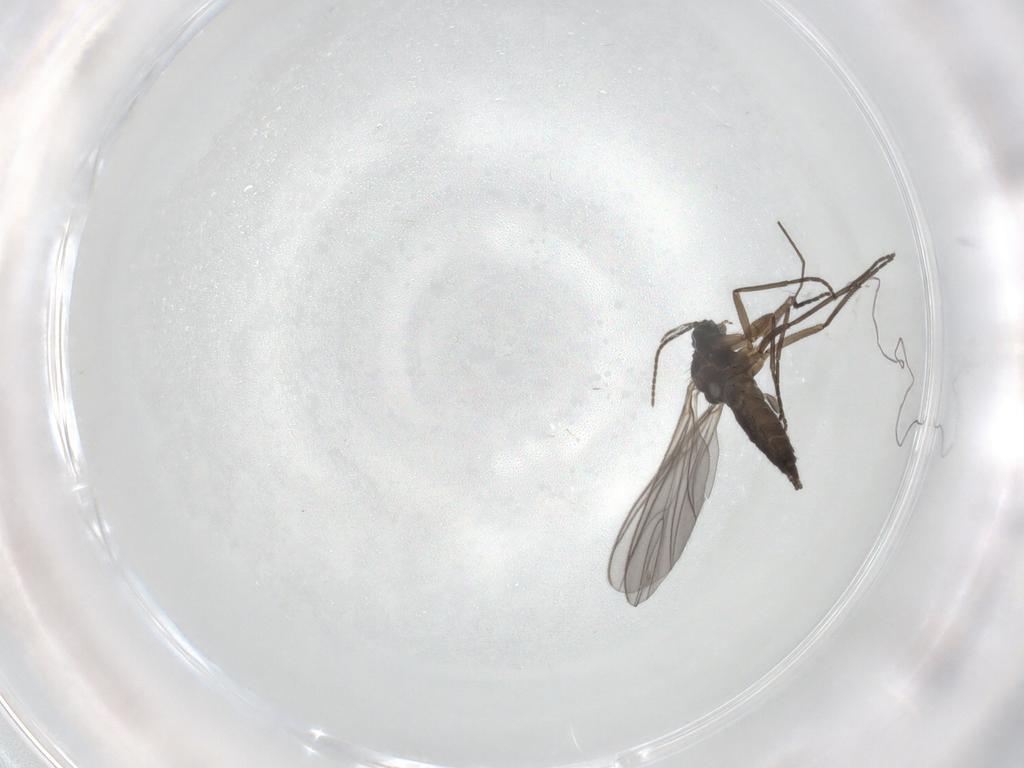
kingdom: Animalia
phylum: Arthropoda
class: Insecta
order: Diptera
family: Sciaridae
